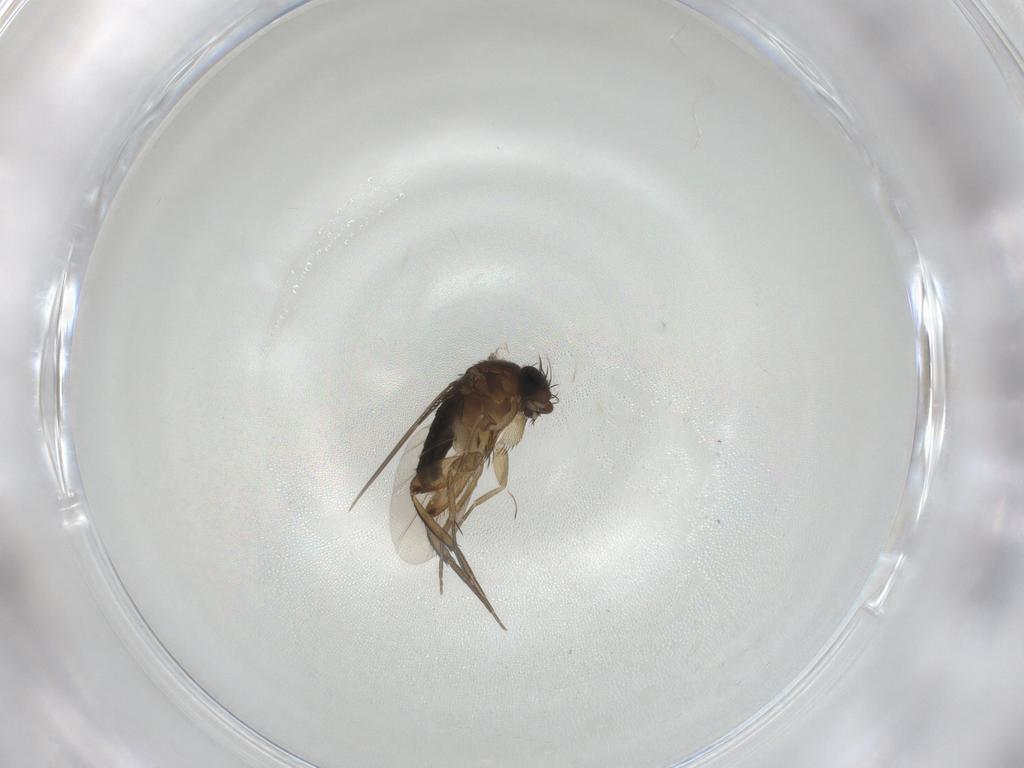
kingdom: Animalia
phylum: Arthropoda
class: Insecta
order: Diptera
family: Phoridae
